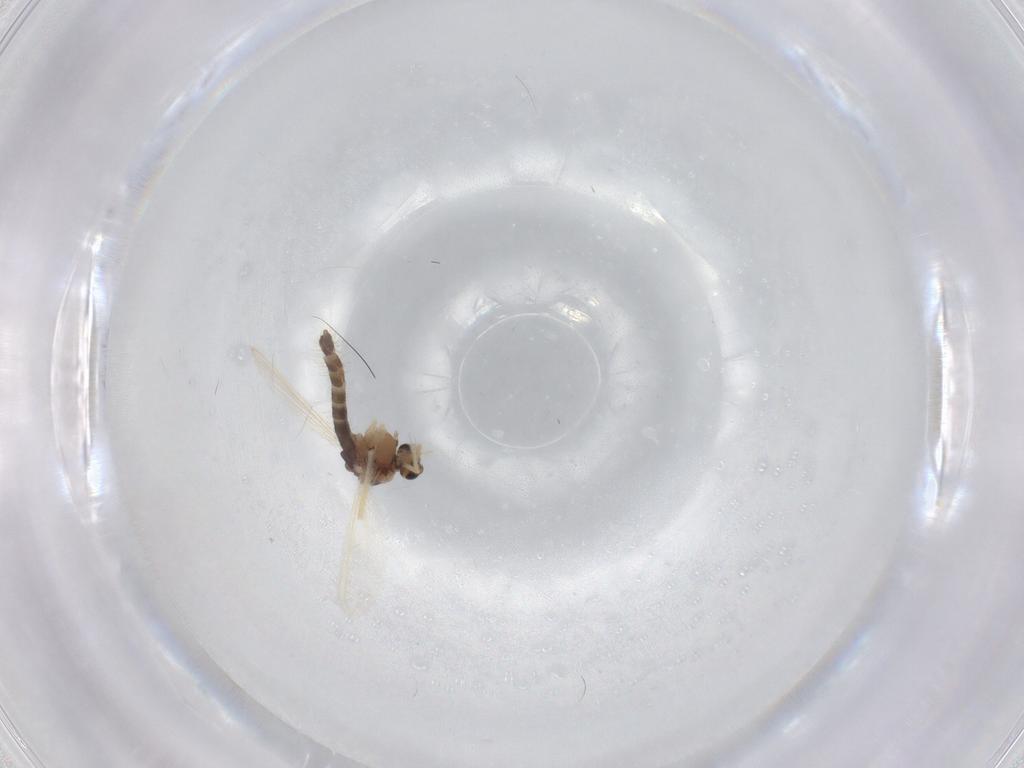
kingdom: Animalia
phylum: Arthropoda
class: Insecta
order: Diptera
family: Chironomidae
